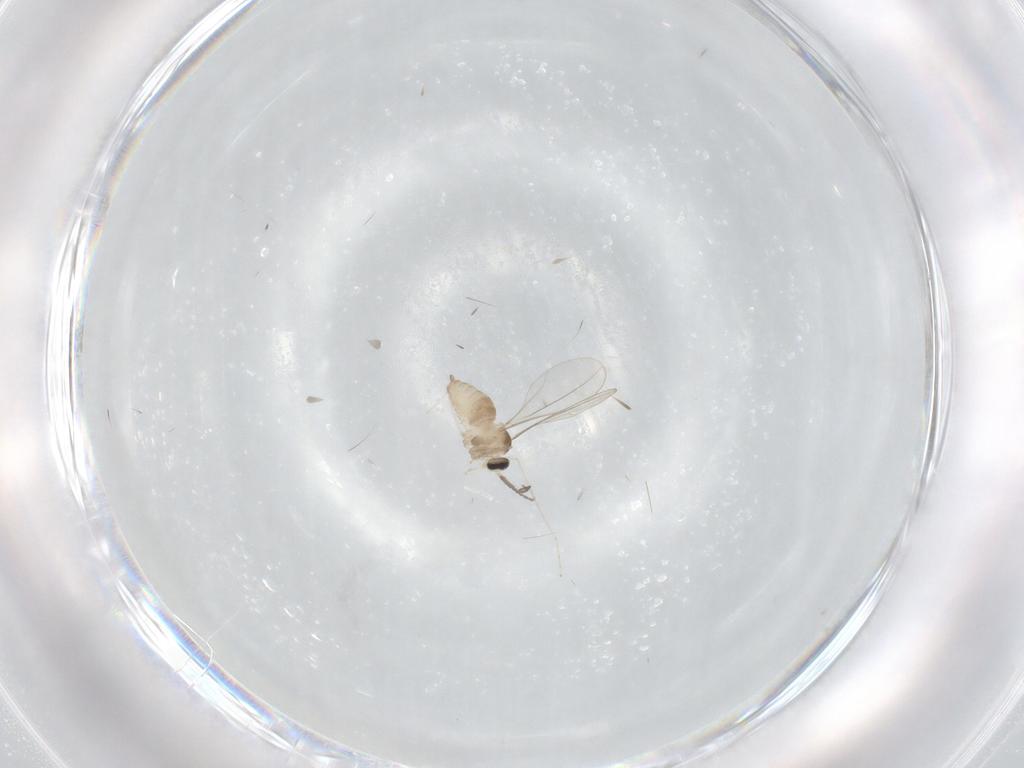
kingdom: Animalia
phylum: Arthropoda
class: Insecta
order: Diptera
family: Cecidomyiidae
